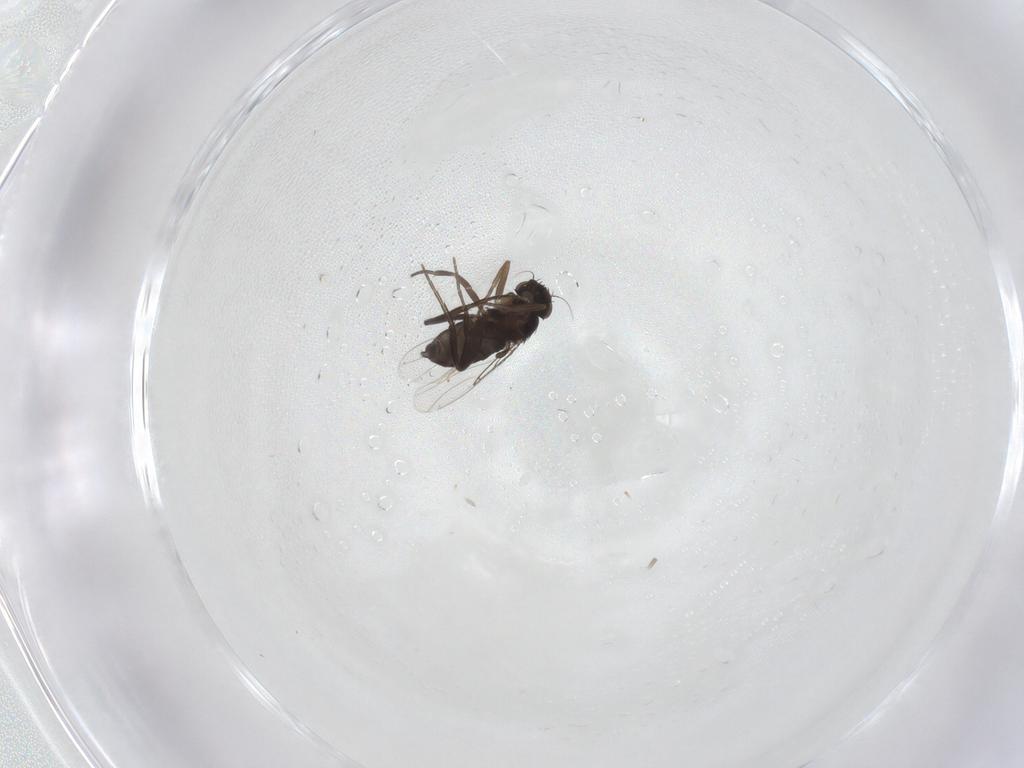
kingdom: Animalia
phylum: Arthropoda
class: Insecta
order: Diptera
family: Phoridae
